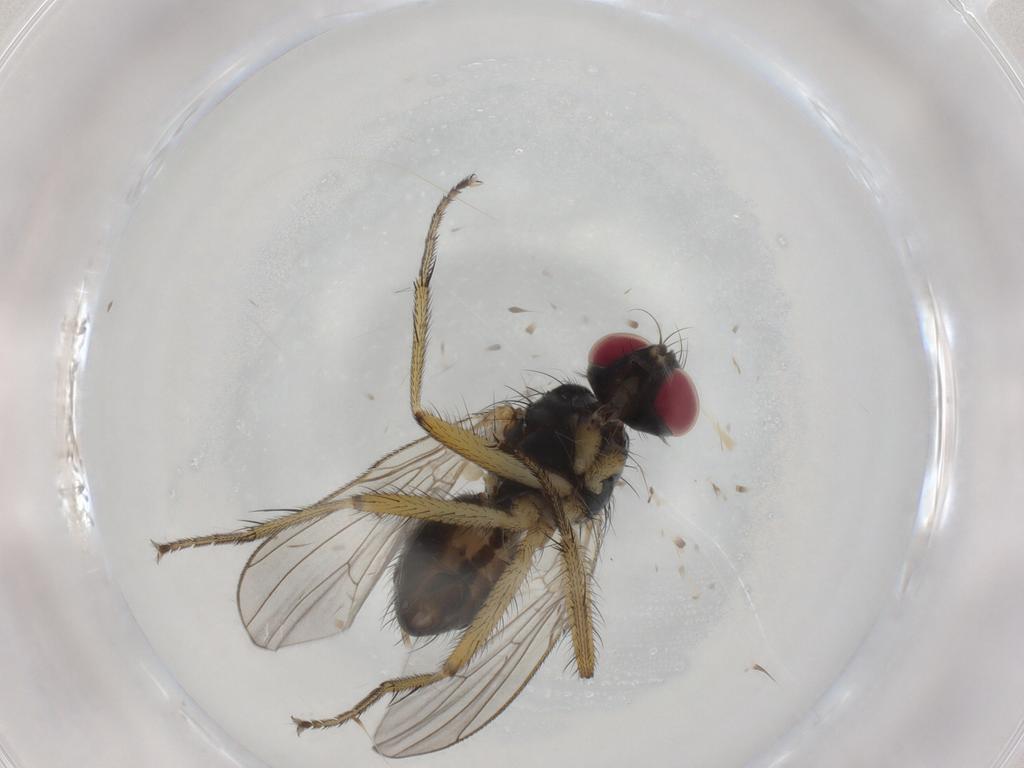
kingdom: Animalia
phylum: Arthropoda
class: Insecta
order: Diptera
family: Muscidae
